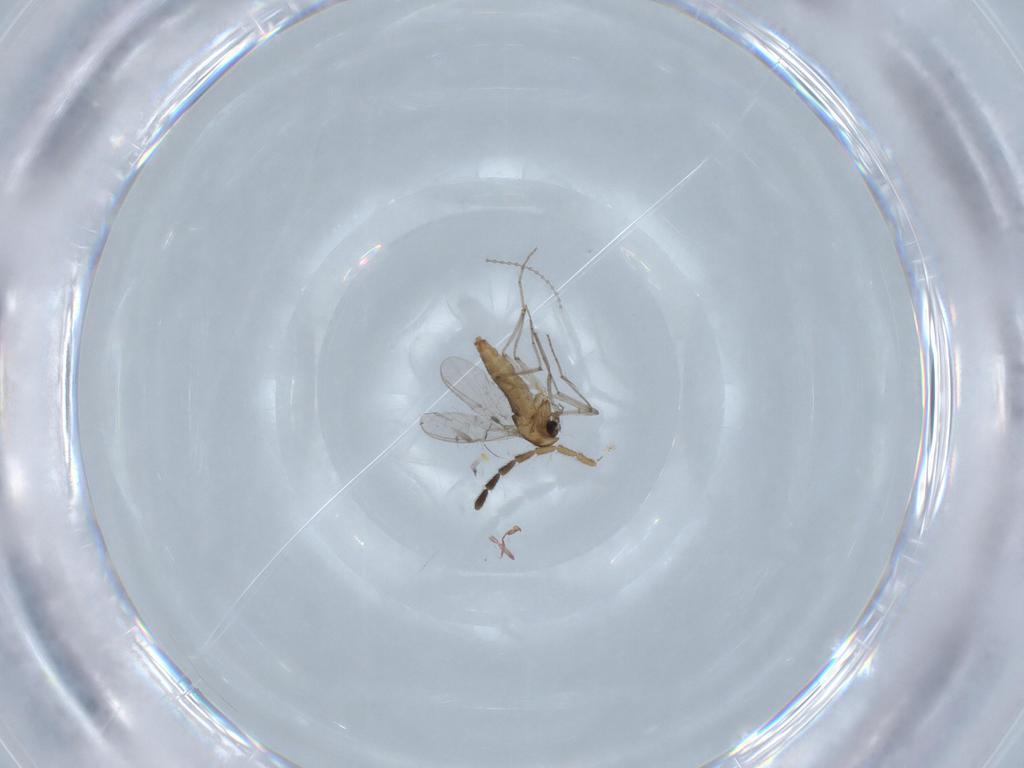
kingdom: Animalia
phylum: Arthropoda
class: Insecta
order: Diptera
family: Chironomidae
